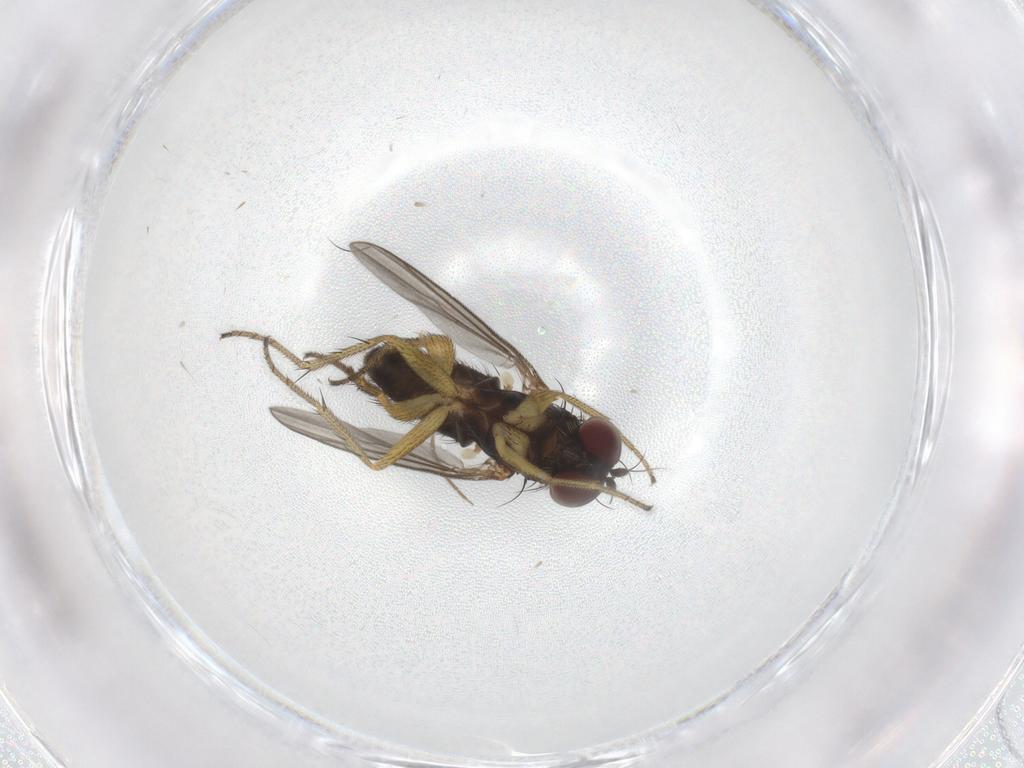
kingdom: Animalia
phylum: Arthropoda
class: Insecta
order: Diptera
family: Dolichopodidae
